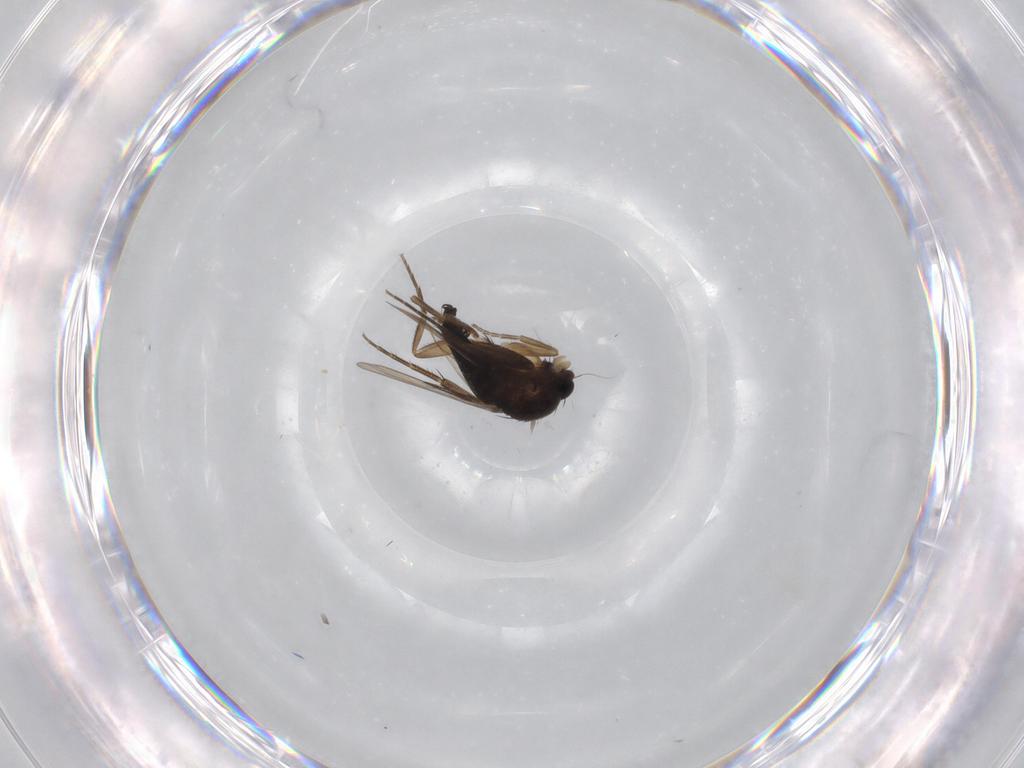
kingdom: Animalia
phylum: Arthropoda
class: Insecta
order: Diptera
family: Phoridae
